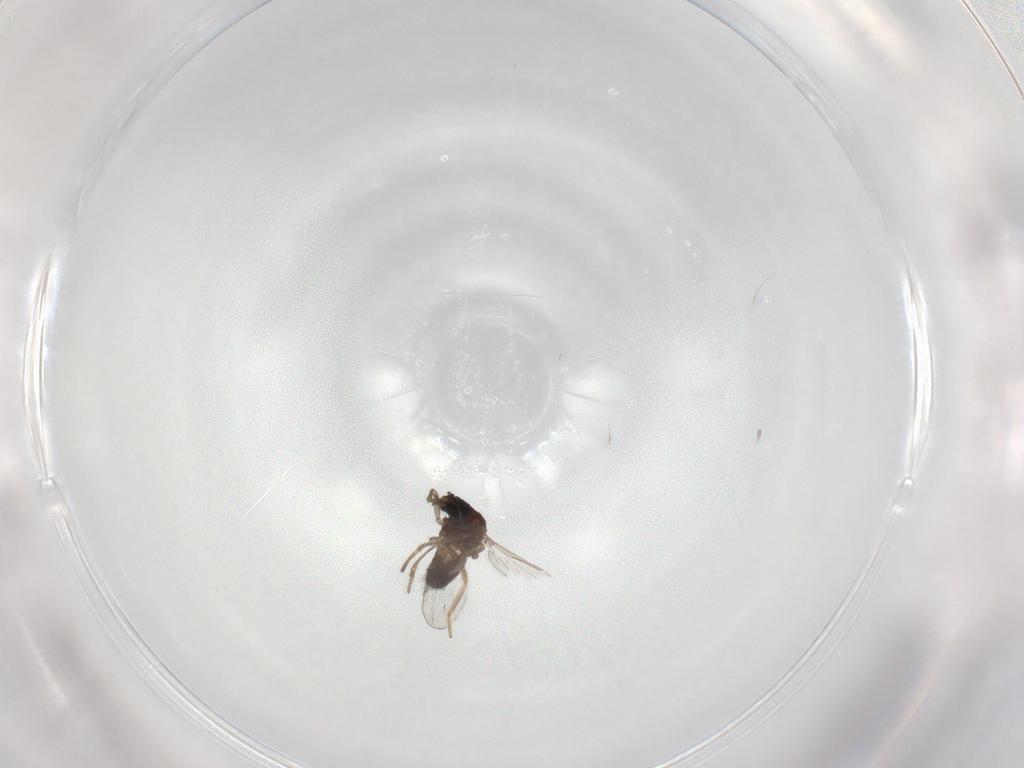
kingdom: Animalia
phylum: Arthropoda
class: Insecta
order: Diptera
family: Ceratopogonidae
